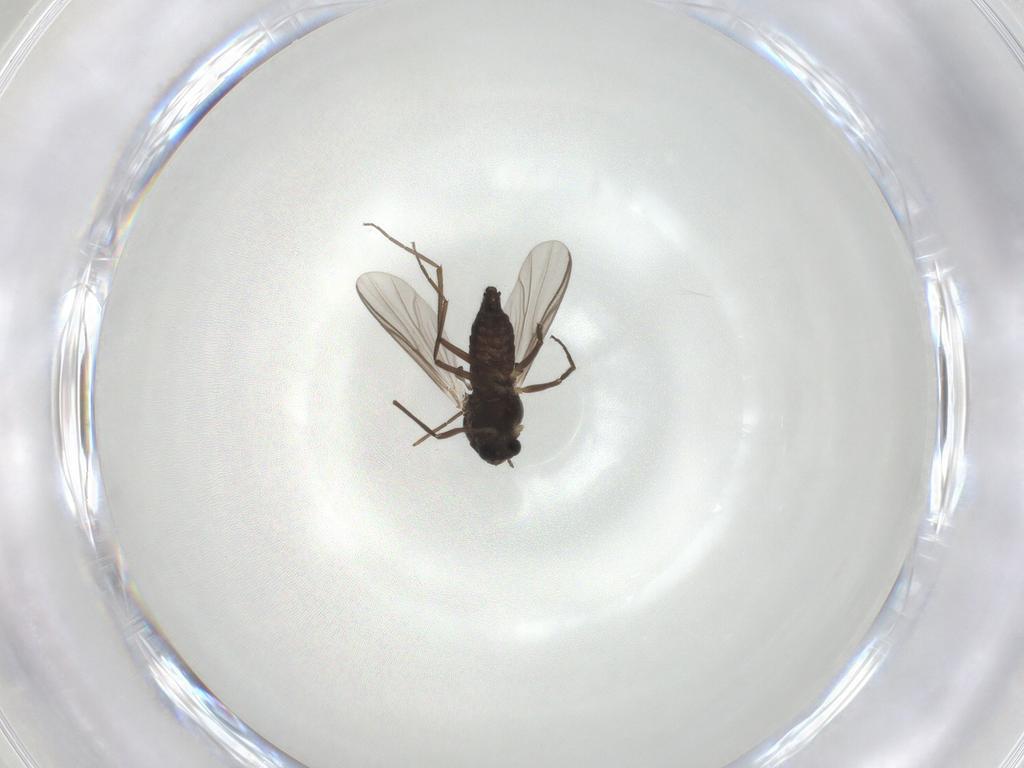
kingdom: Animalia
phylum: Arthropoda
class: Insecta
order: Diptera
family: Chironomidae
